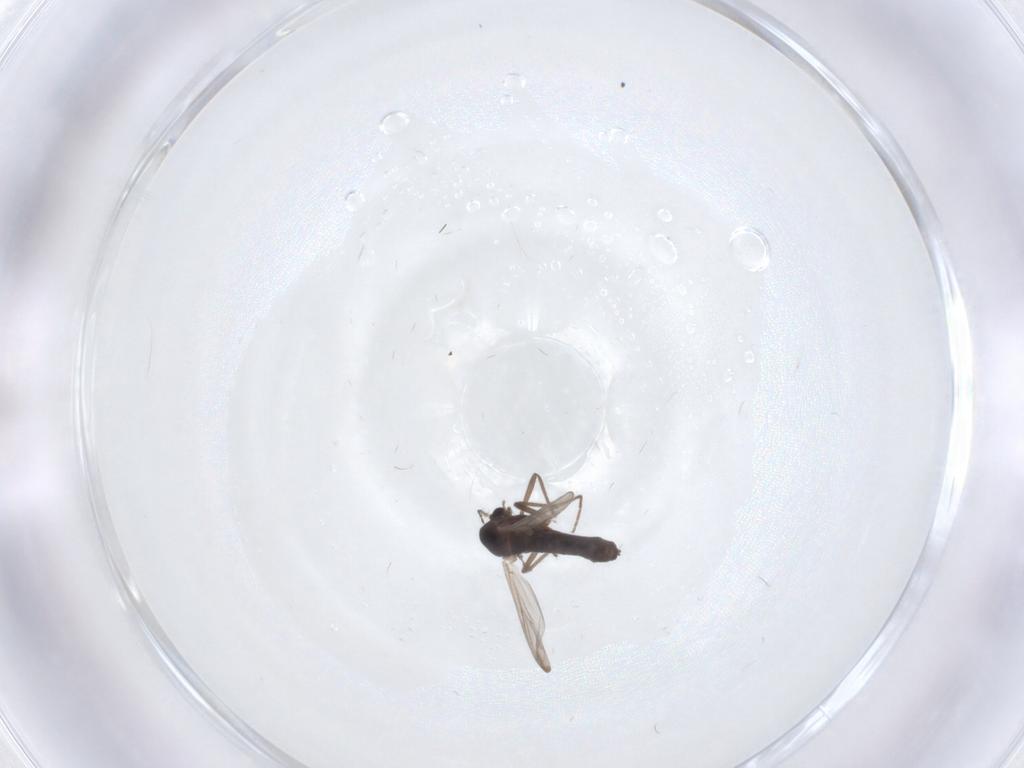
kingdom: Animalia
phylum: Arthropoda
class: Insecta
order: Diptera
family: Chironomidae
